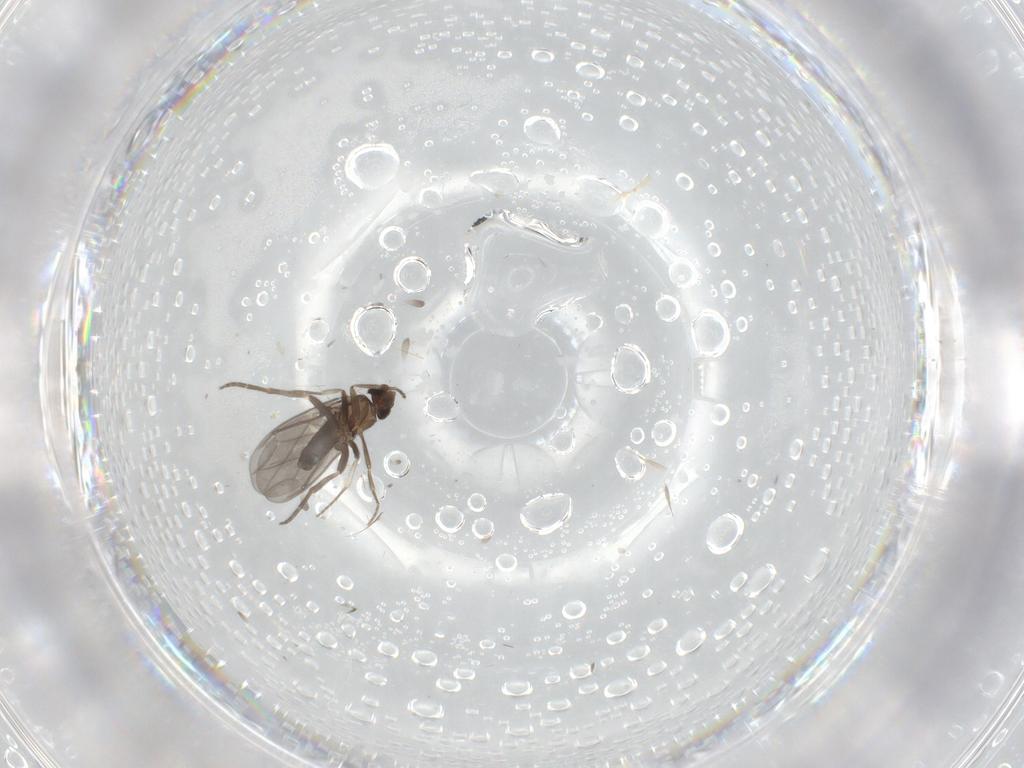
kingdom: Animalia
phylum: Arthropoda
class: Insecta
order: Diptera
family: Phoridae
